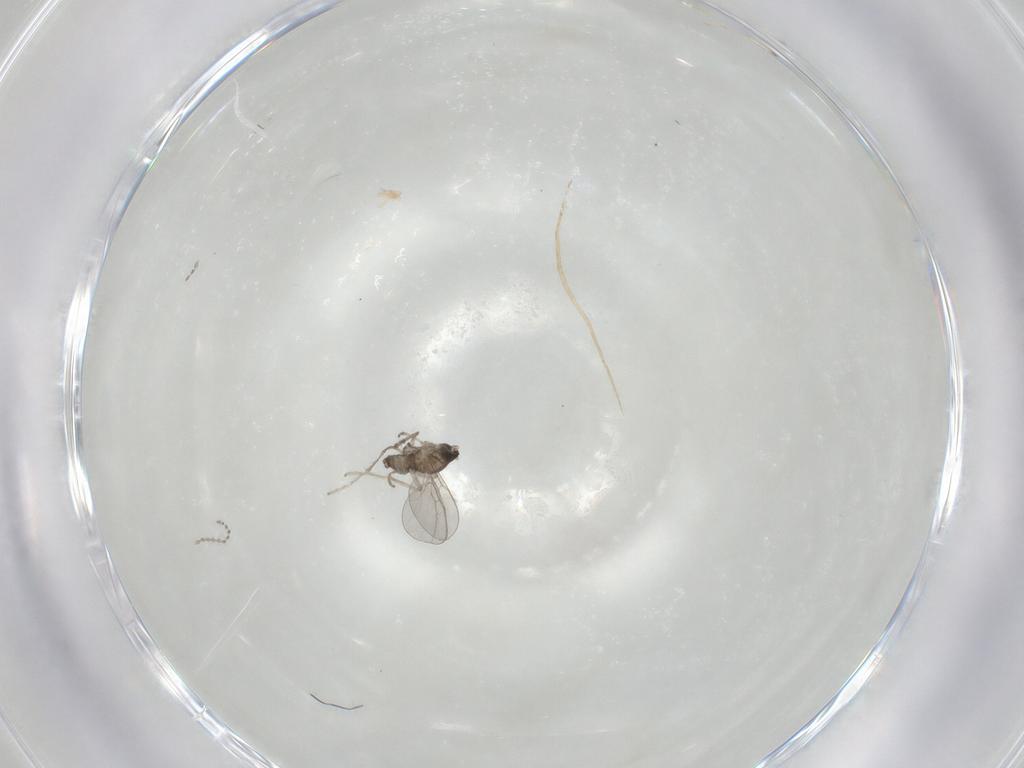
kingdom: Animalia
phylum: Arthropoda
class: Insecta
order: Diptera
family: Cecidomyiidae
